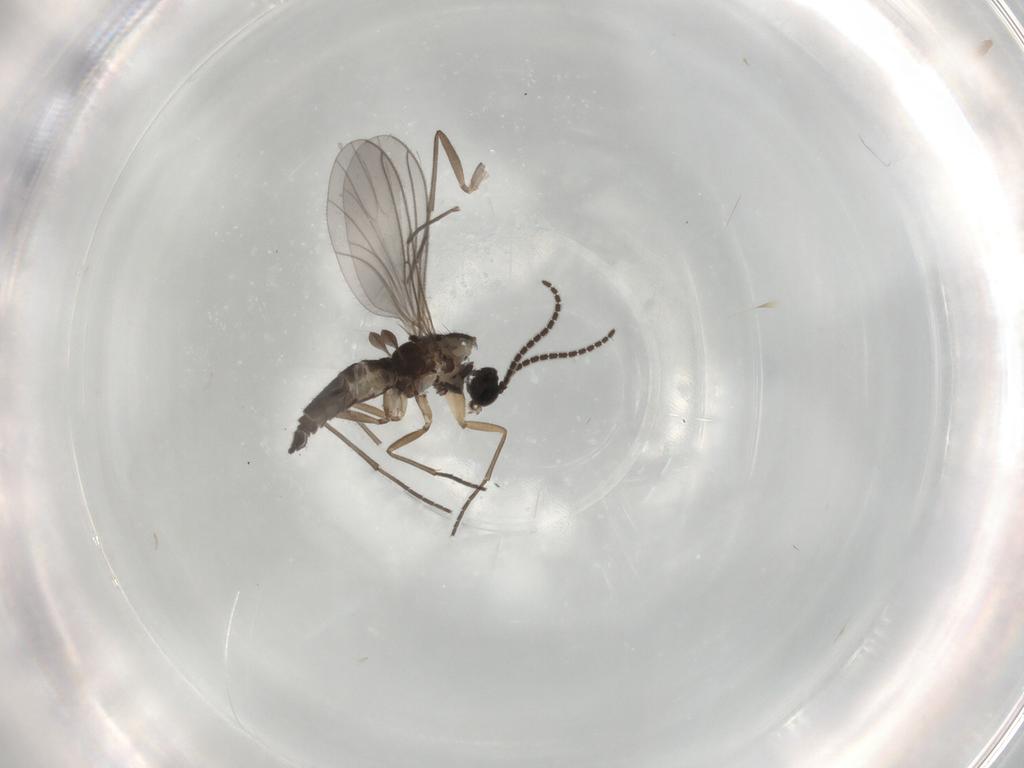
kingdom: Animalia
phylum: Arthropoda
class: Insecta
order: Diptera
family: Sciaridae
